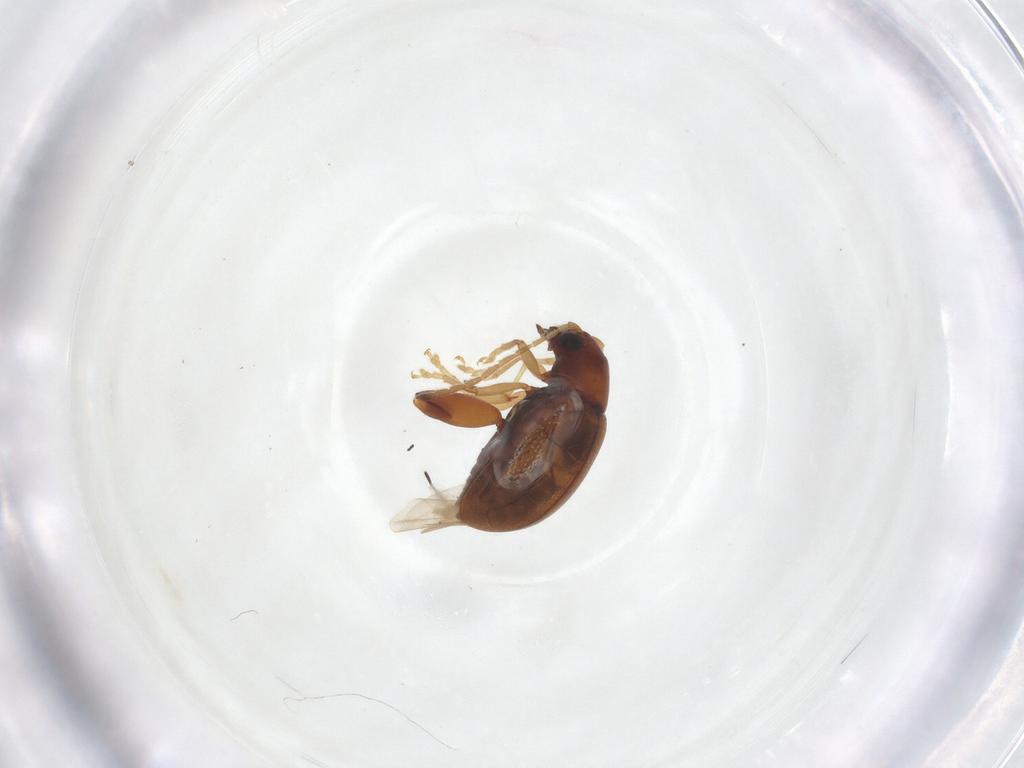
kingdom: Animalia
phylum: Arthropoda
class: Insecta
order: Coleoptera
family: Chrysomelidae
